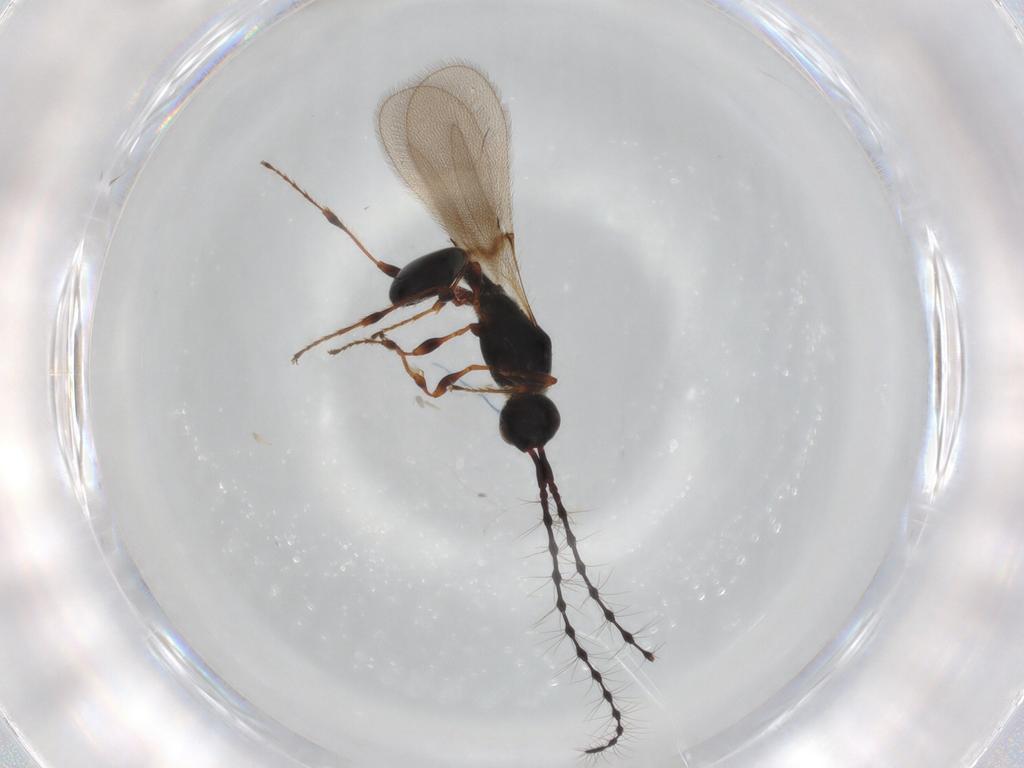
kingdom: Animalia
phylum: Arthropoda
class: Insecta
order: Hymenoptera
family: Diapriidae
